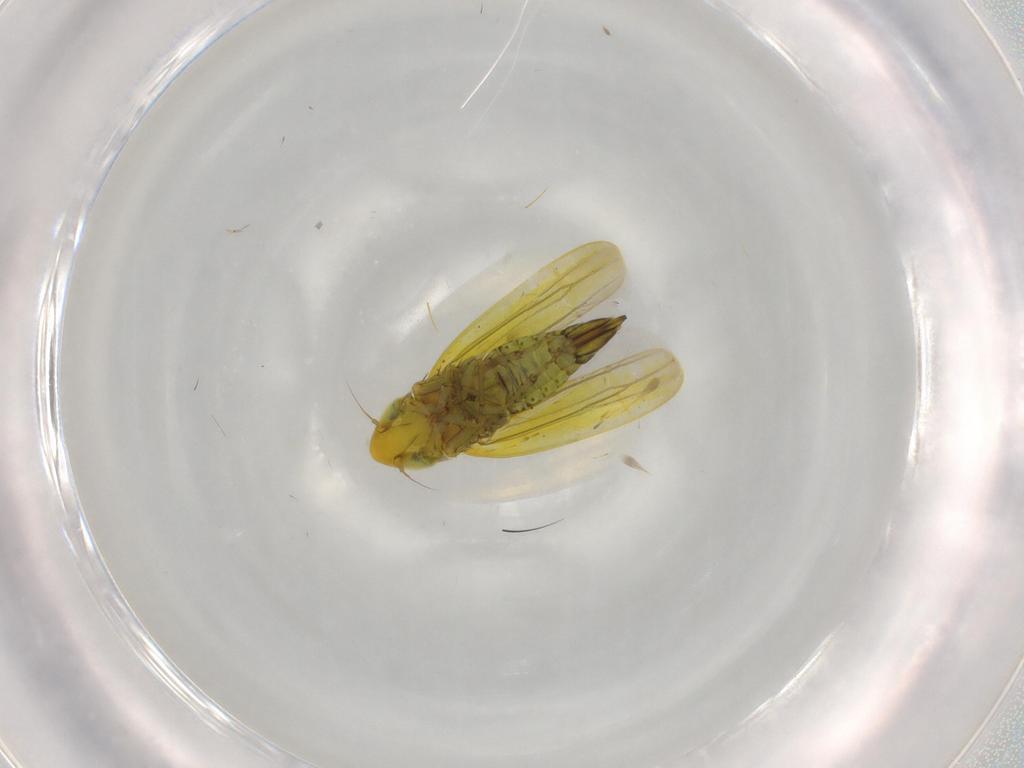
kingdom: Animalia
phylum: Arthropoda
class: Insecta
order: Hemiptera
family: Cicadellidae
